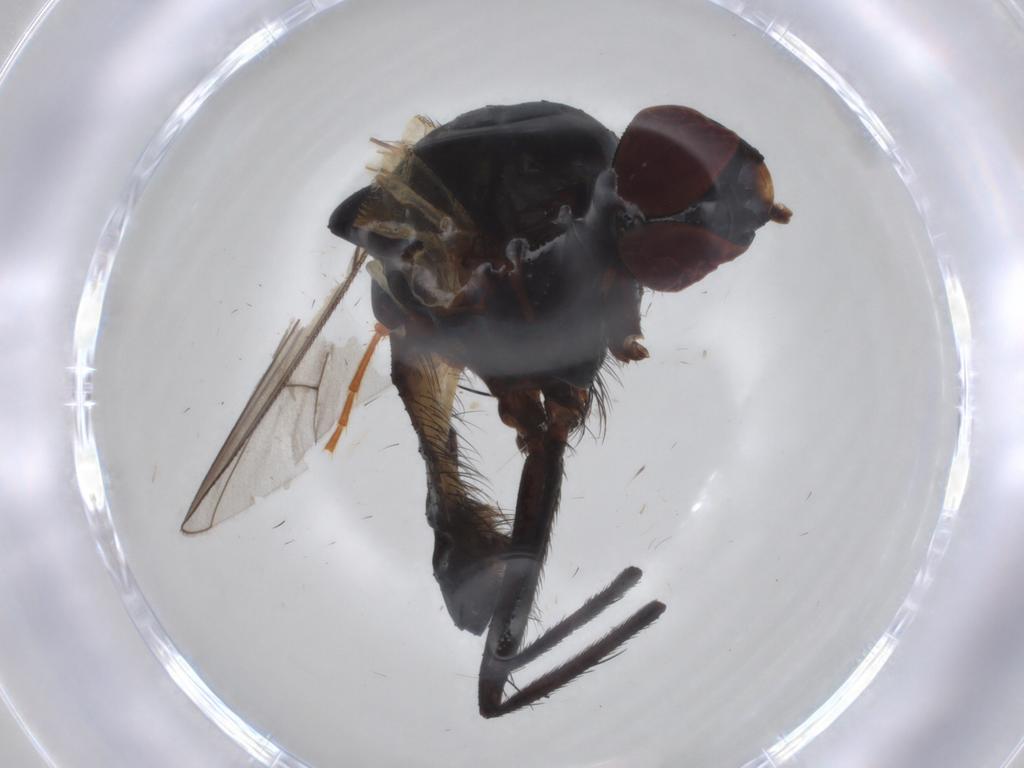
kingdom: Animalia
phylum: Arthropoda
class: Insecta
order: Diptera
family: Anthomyiidae
